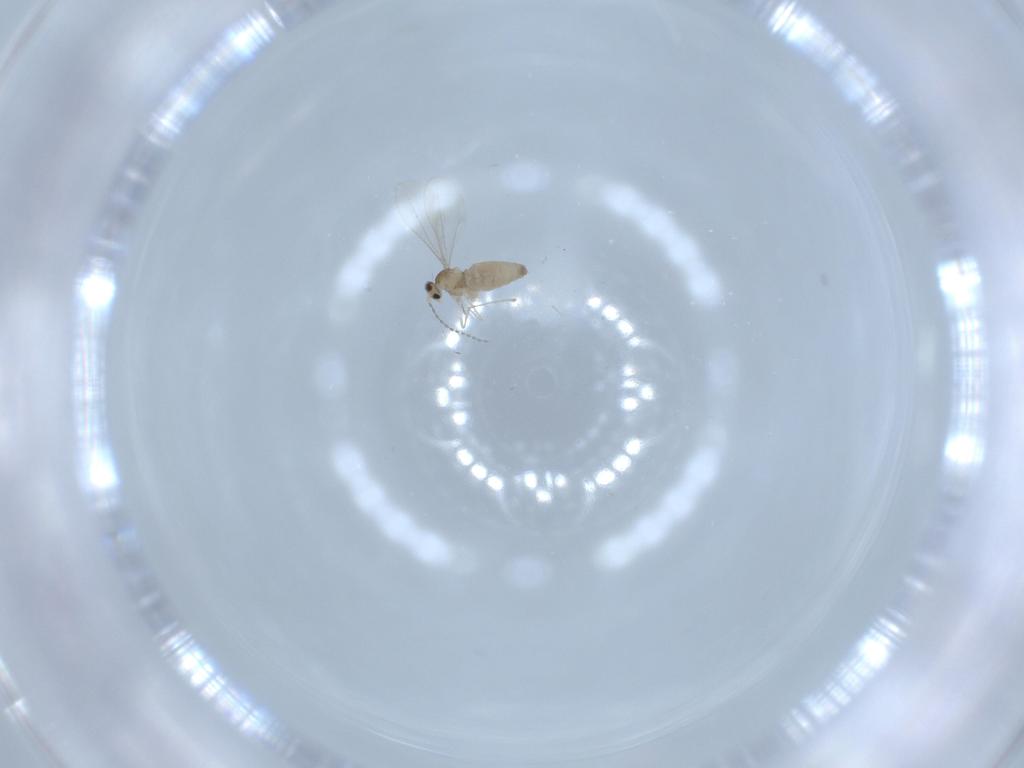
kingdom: Animalia
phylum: Arthropoda
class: Insecta
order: Diptera
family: Cecidomyiidae
